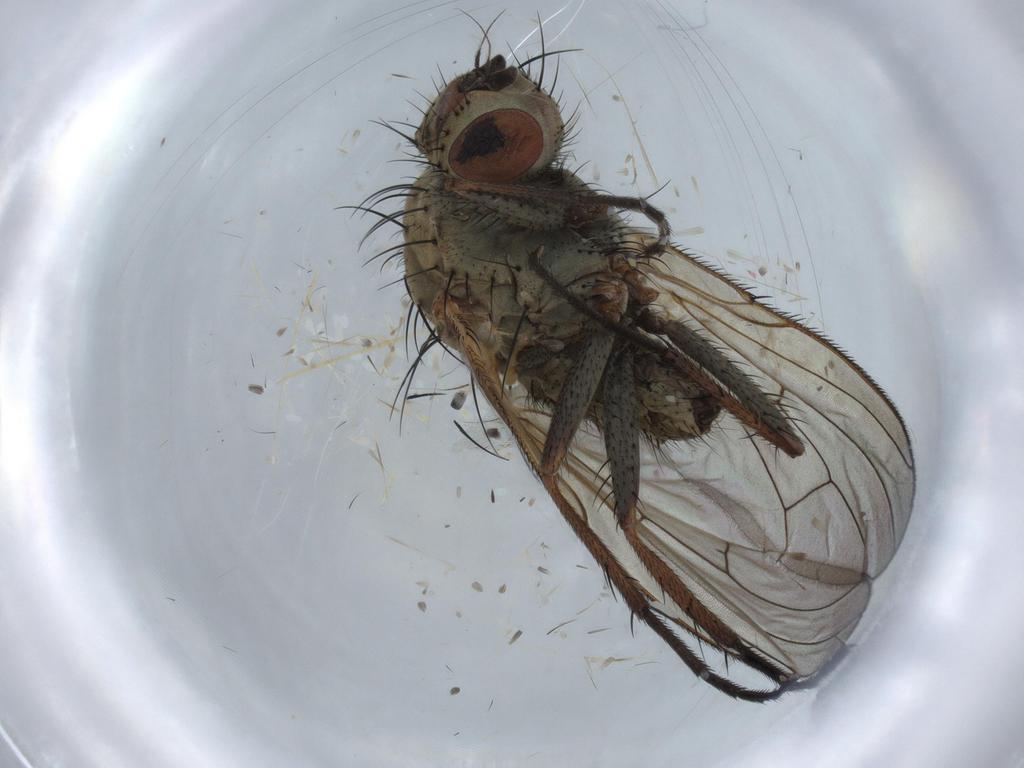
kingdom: Animalia
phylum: Arthropoda
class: Insecta
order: Diptera
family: Anthomyiidae
